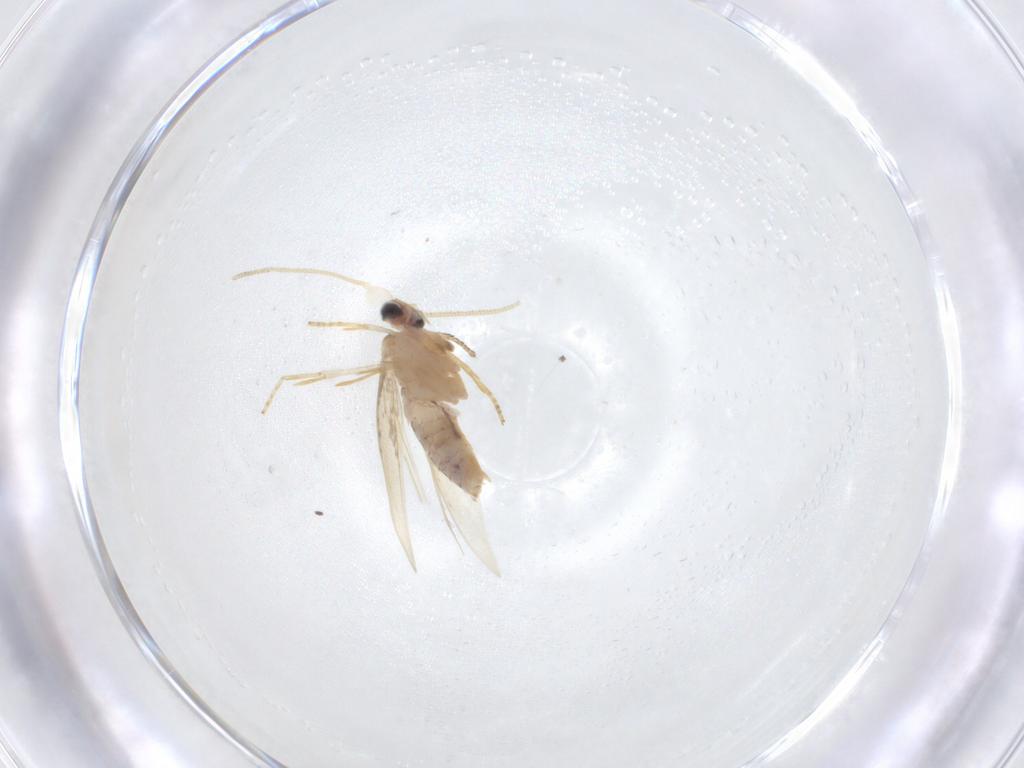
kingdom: Animalia
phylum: Arthropoda
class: Insecta
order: Lepidoptera
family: Nepticulidae
